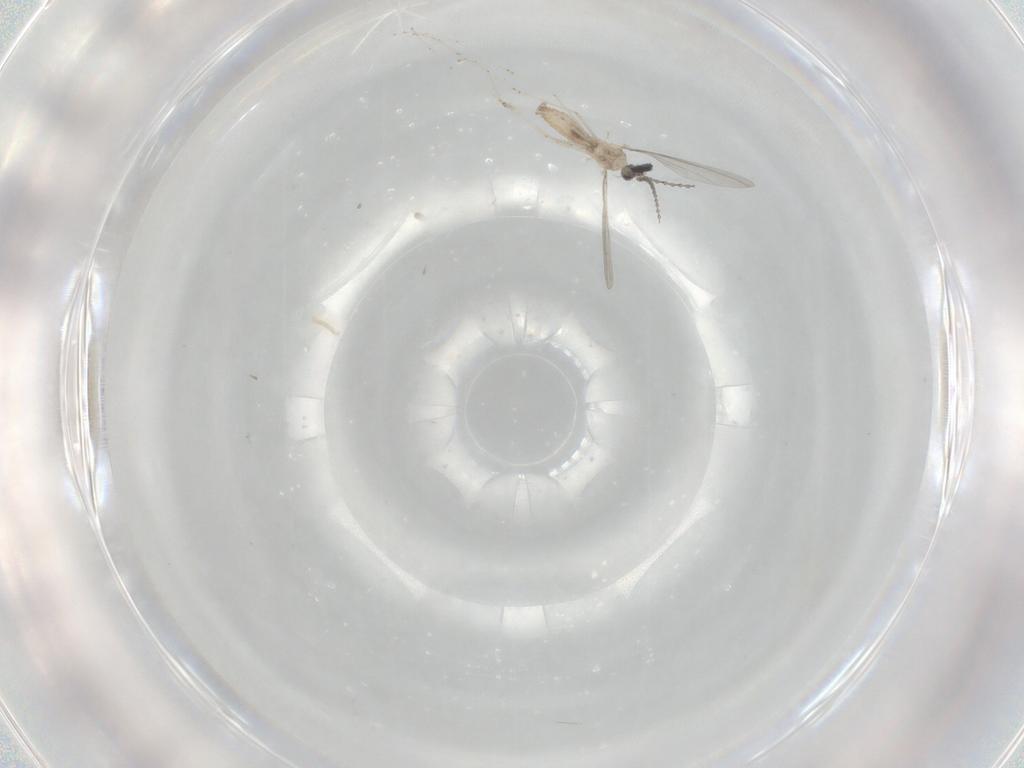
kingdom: Animalia
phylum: Arthropoda
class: Insecta
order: Diptera
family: Cecidomyiidae
